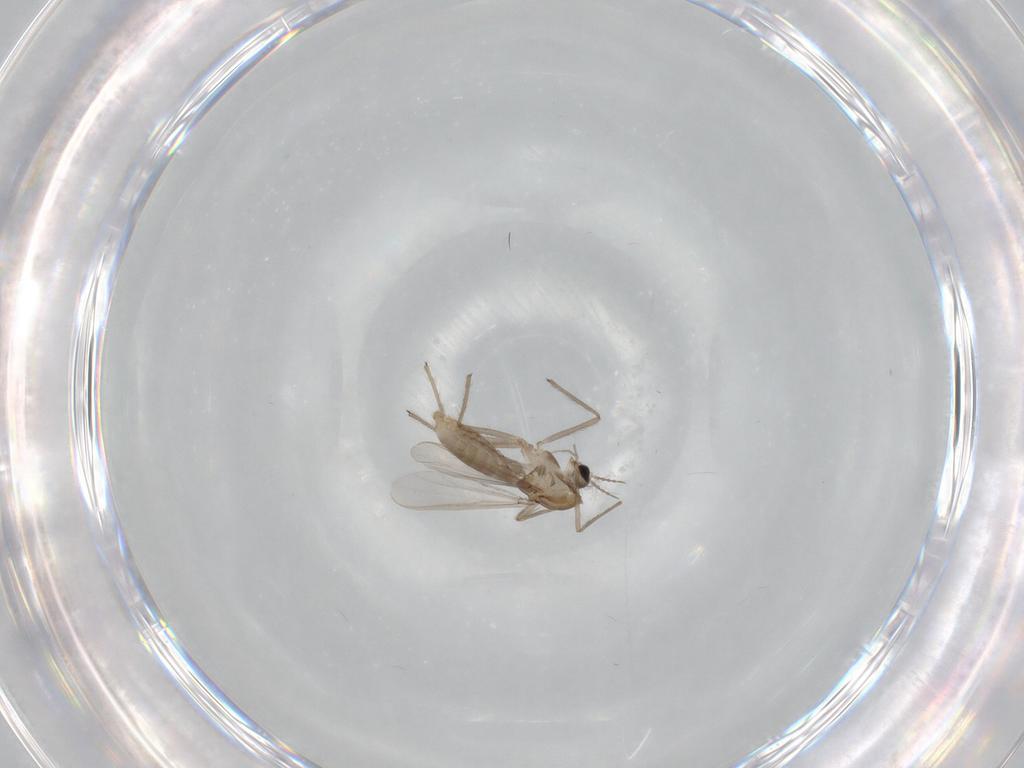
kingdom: Animalia
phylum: Arthropoda
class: Insecta
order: Diptera
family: Chironomidae
